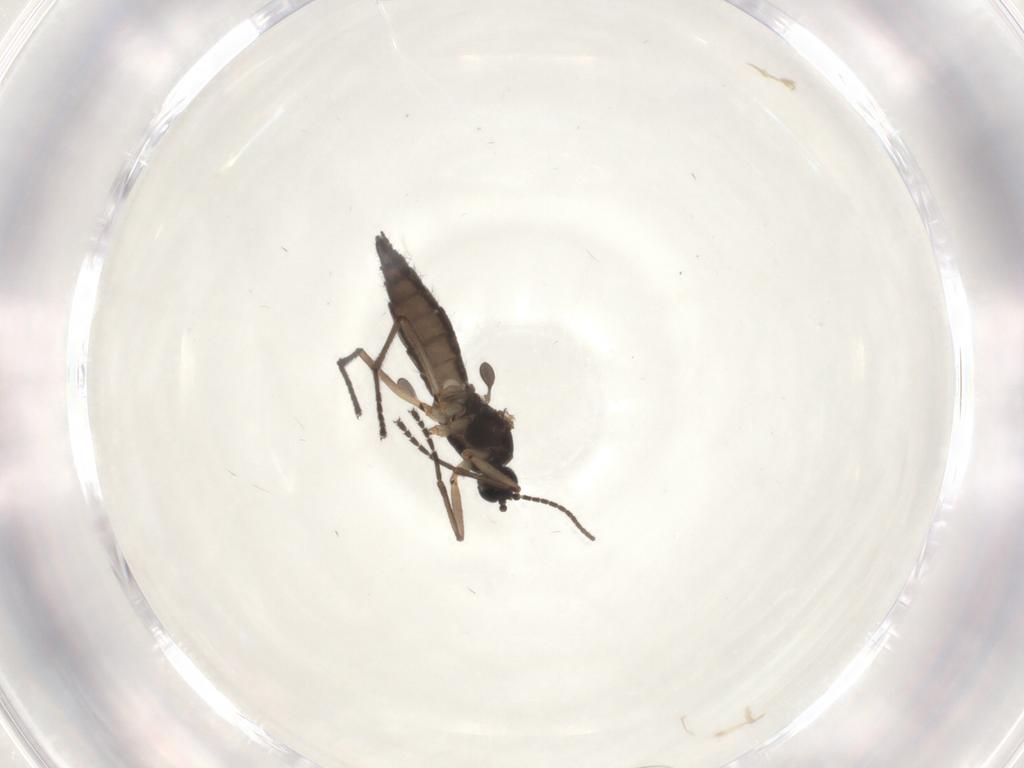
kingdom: Animalia
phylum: Arthropoda
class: Insecta
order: Diptera
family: Sciaridae
